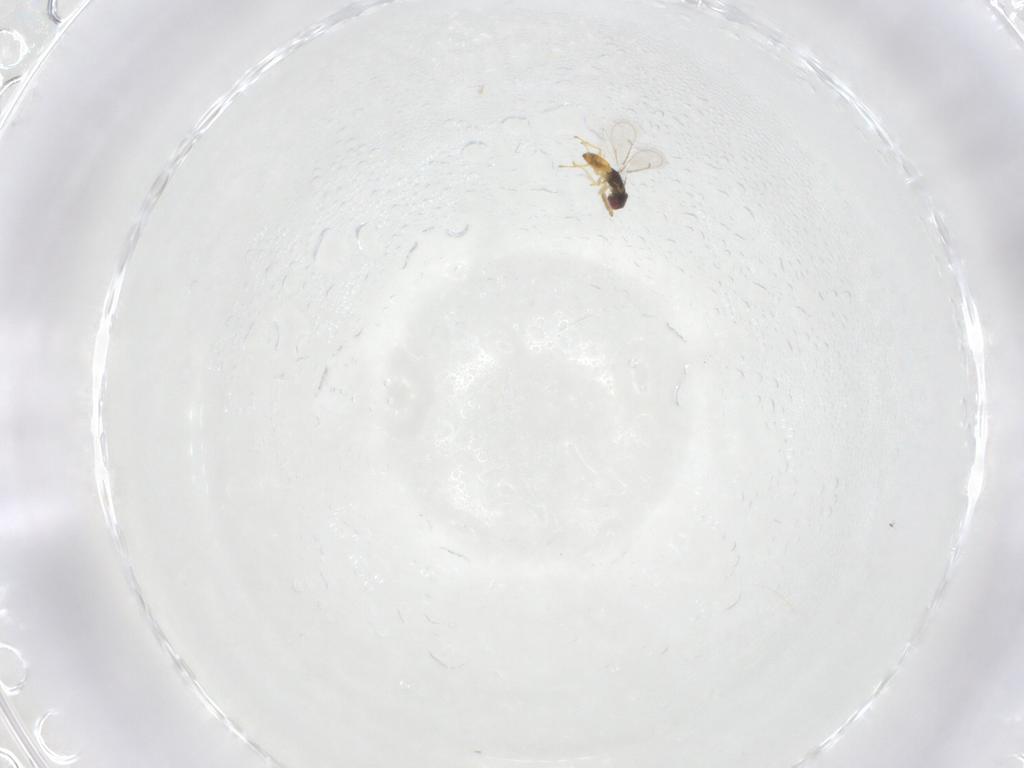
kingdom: Animalia
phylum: Arthropoda
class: Insecta
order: Hymenoptera
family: Eulophidae
